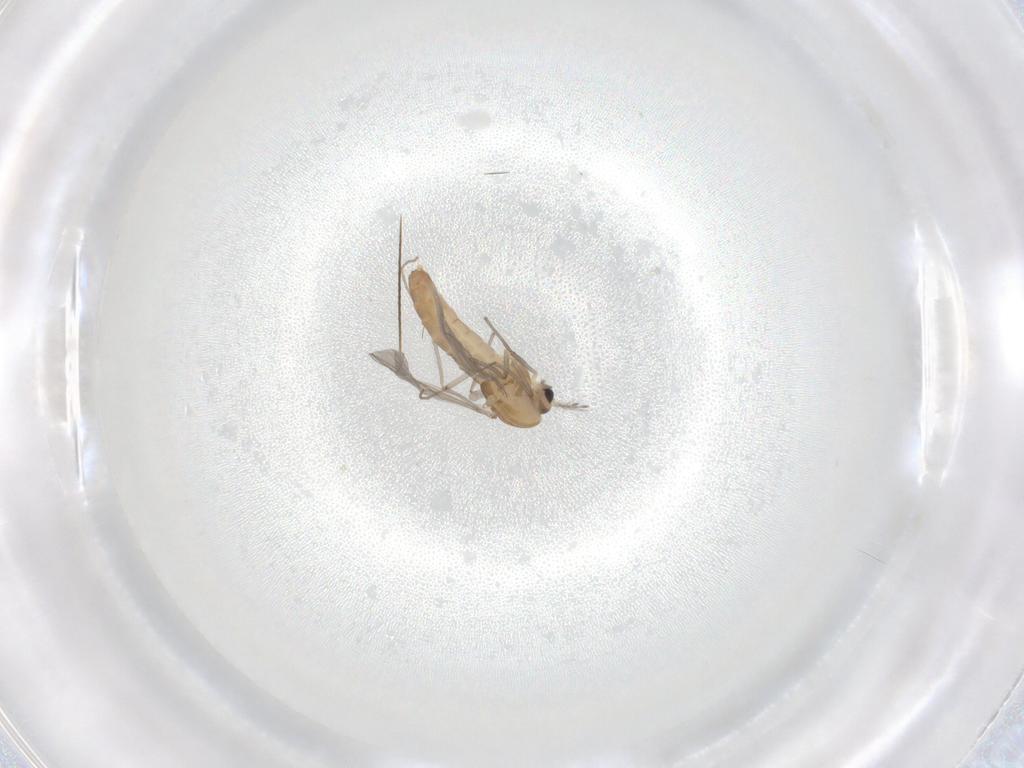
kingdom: Animalia
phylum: Arthropoda
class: Insecta
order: Diptera
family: Chironomidae
